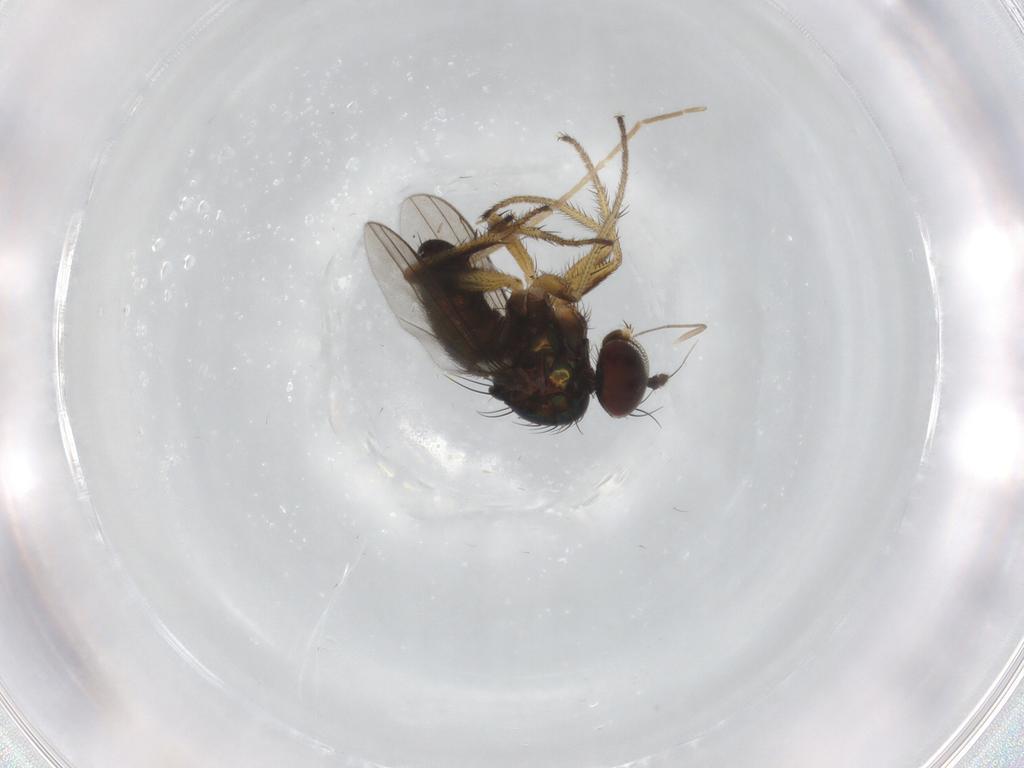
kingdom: Animalia
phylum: Arthropoda
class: Insecta
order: Diptera
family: Dolichopodidae
